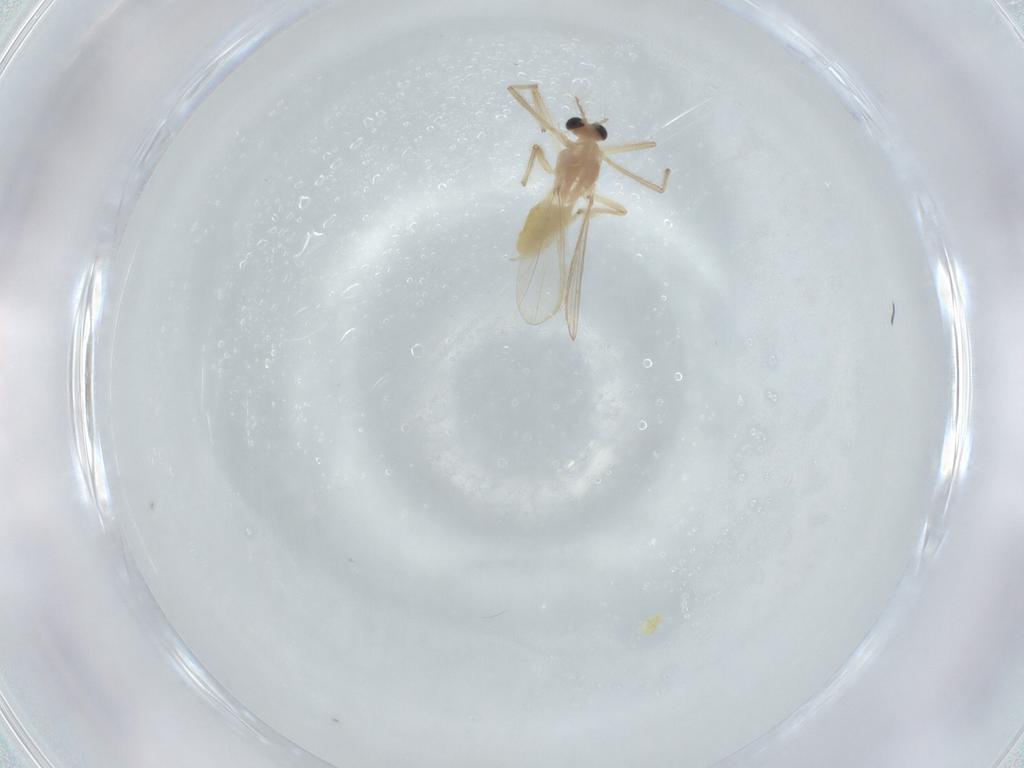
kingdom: Animalia
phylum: Arthropoda
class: Insecta
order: Diptera
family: Chironomidae
